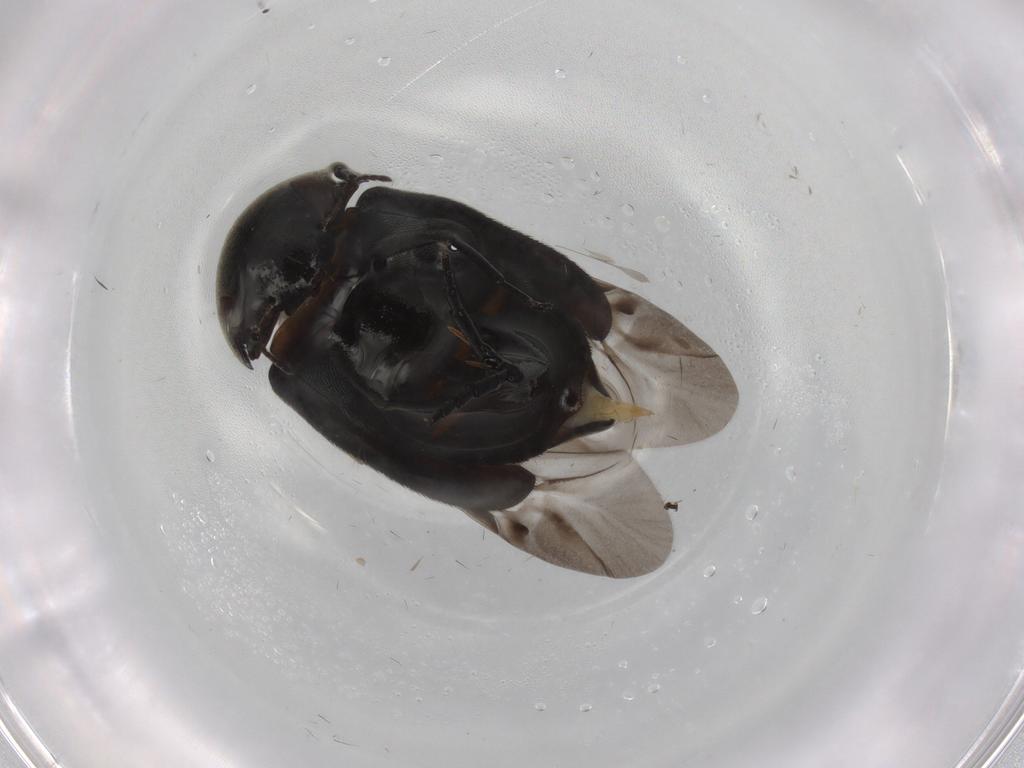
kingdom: Animalia
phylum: Arthropoda
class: Insecta
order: Coleoptera
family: Mordellidae
